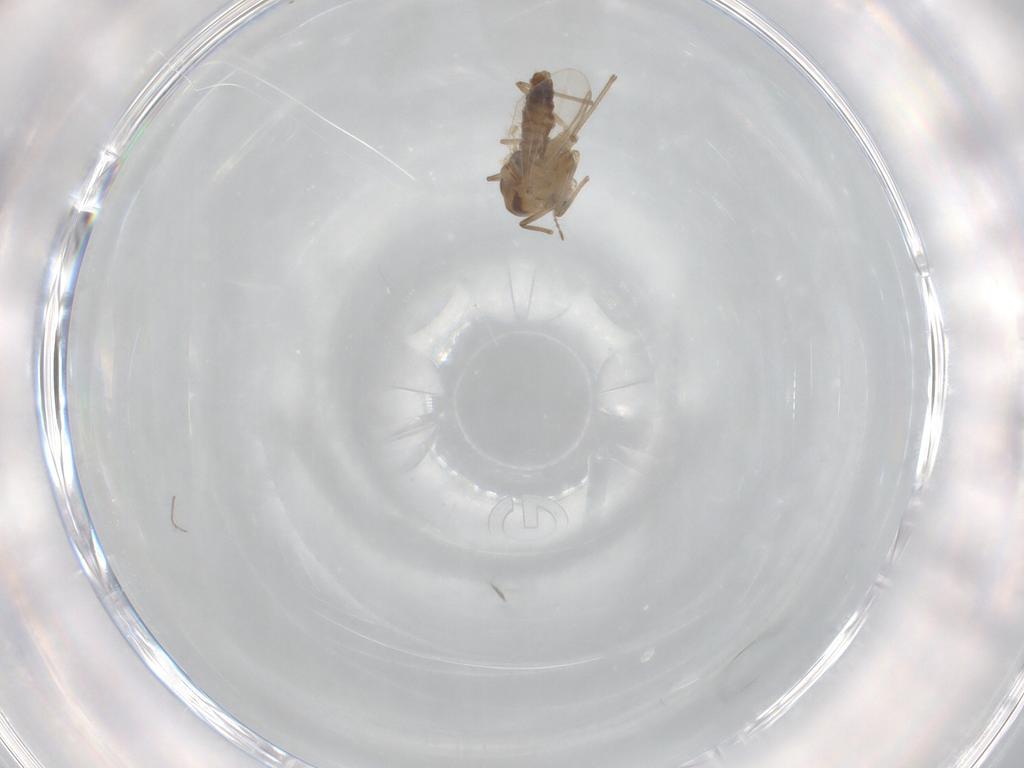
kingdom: Animalia
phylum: Arthropoda
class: Insecta
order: Diptera
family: Chironomidae
